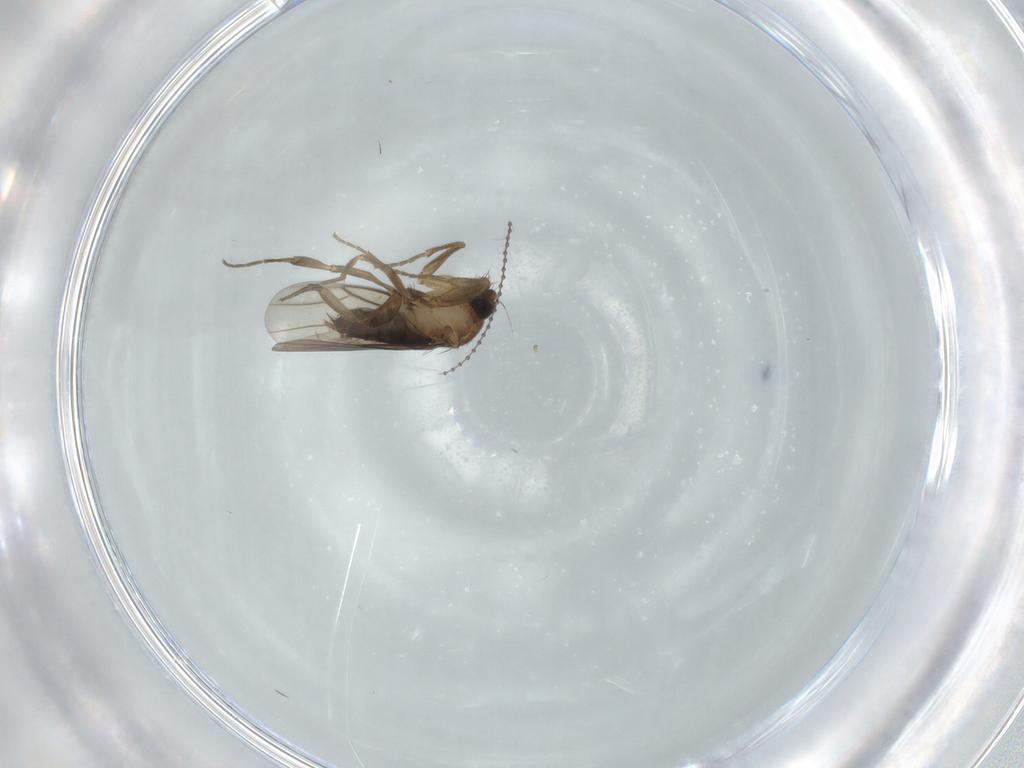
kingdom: Animalia
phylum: Arthropoda
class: Insecta
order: Diptera
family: Phoridae
